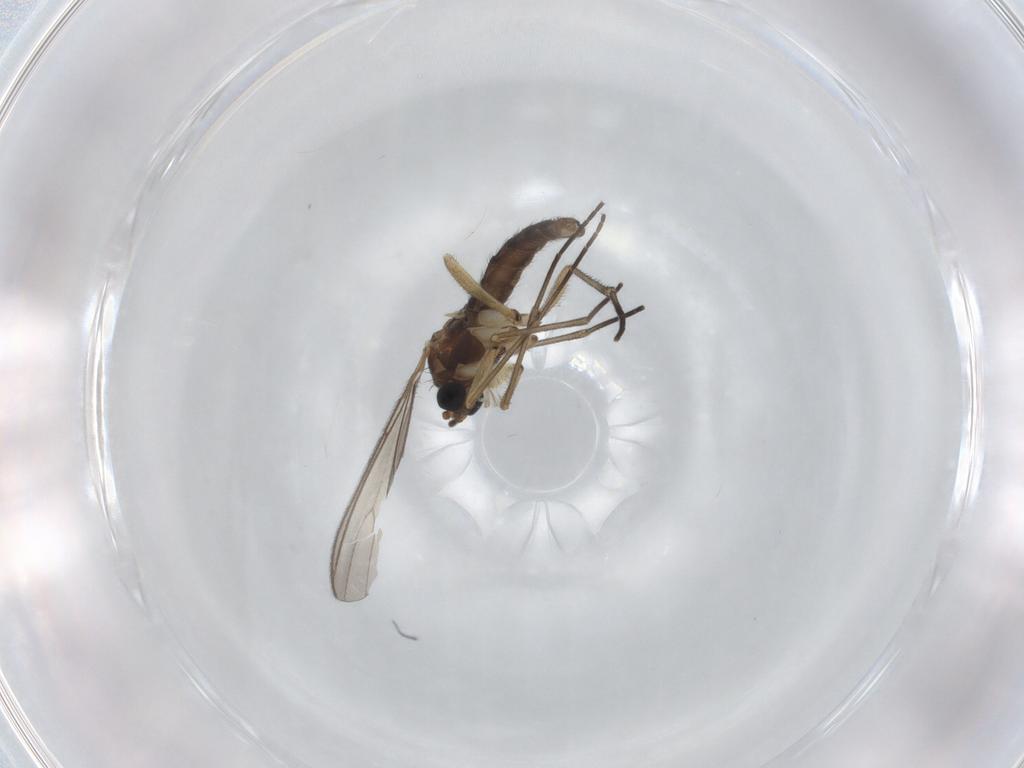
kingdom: Animalia
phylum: Arthropoda
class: Insecta
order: Diptera
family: Sciaridae
